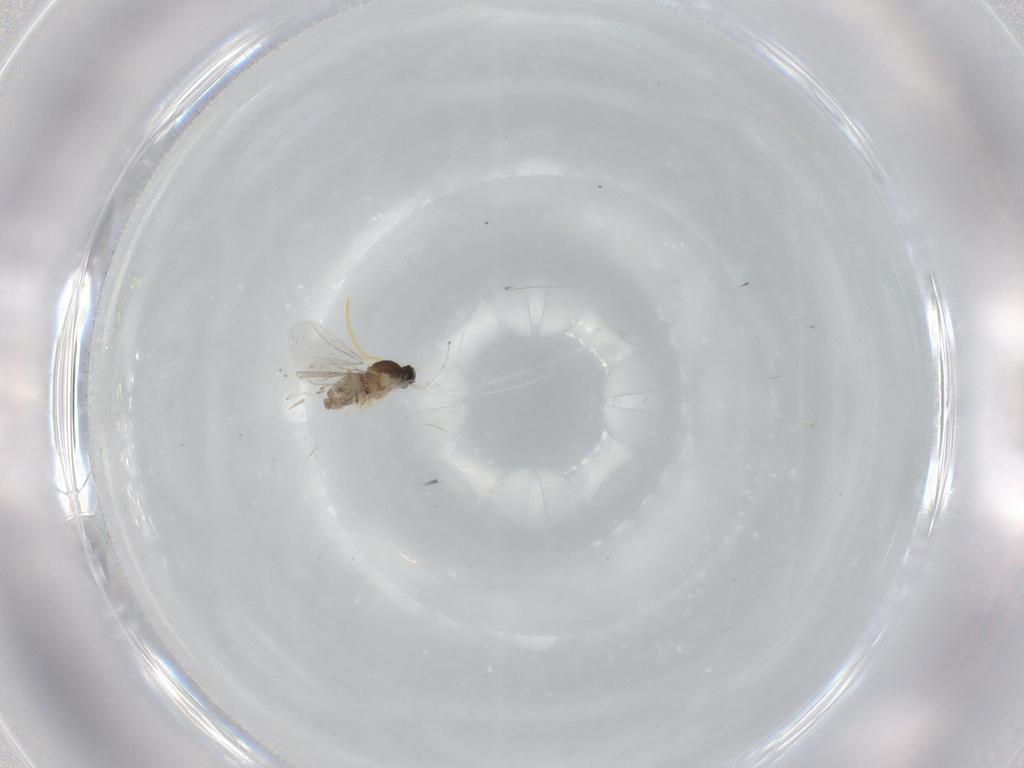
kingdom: Animalia
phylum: Arthropoda
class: Insecta
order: Diptera
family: Cecidomyiidae
